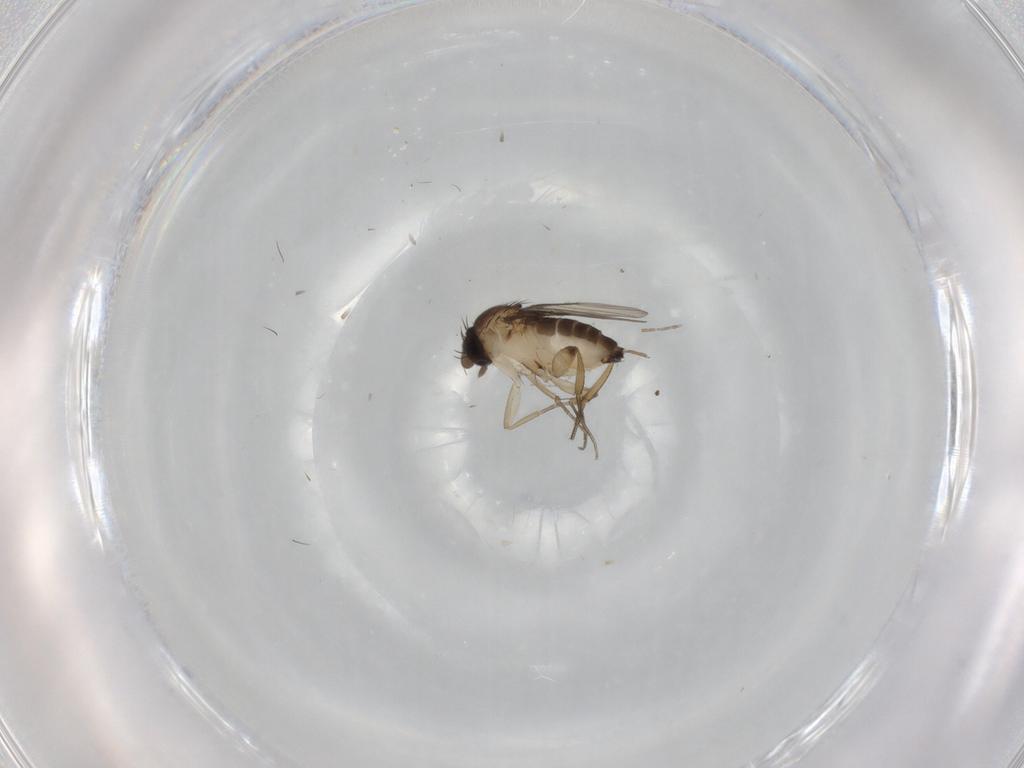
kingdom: Animalia
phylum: Arthropoda
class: Insecta
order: Diptera
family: Phoridae
